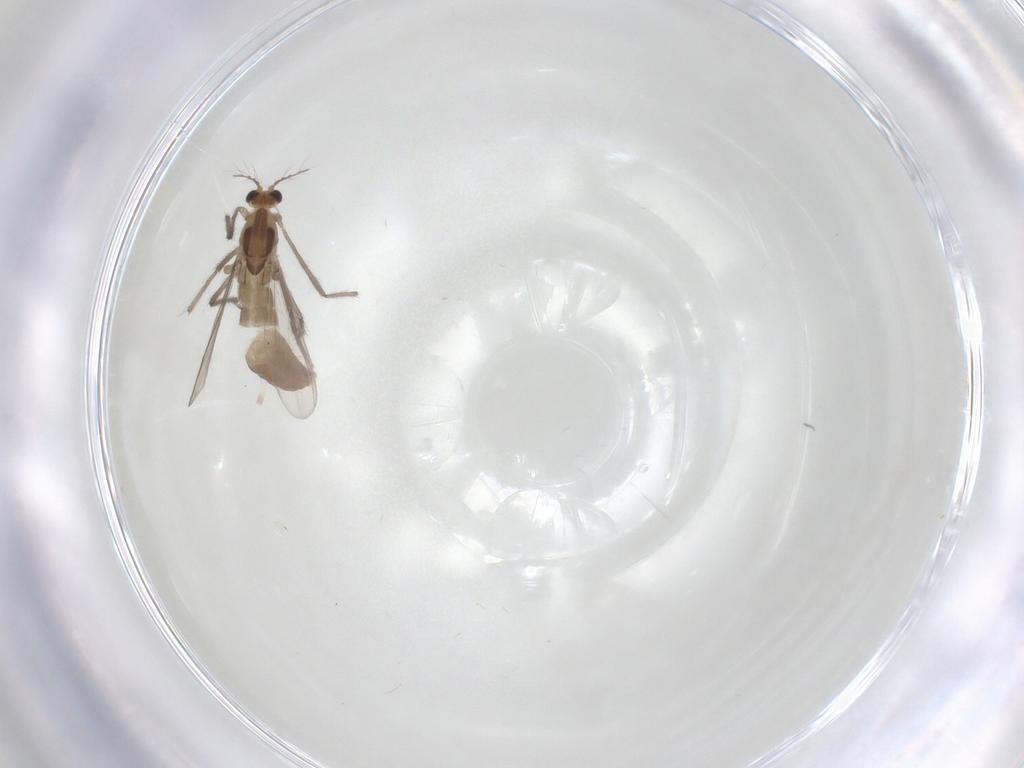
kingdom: Animalia
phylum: Arthropoda
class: Insecta
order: Diptera
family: Chironomidae
